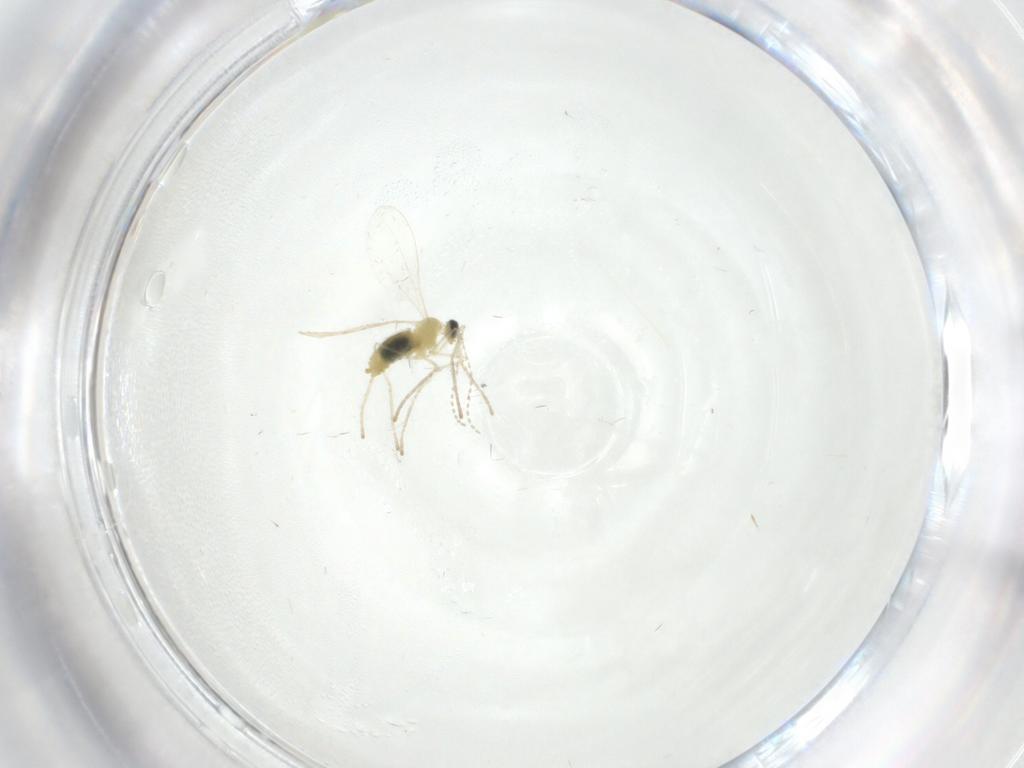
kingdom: Animalia
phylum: Arthropoda
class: Insecta
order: Diptera
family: Cecidomyiidae
